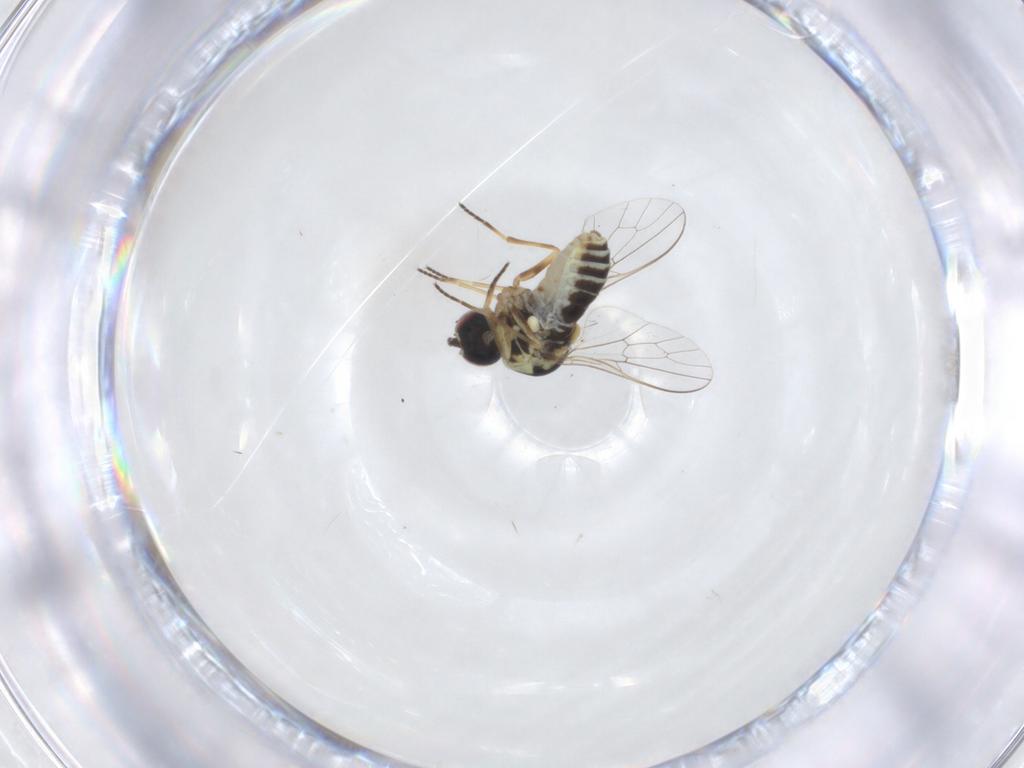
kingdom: Animalia
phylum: Arthropoda
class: Insecta
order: Diptera
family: Bombyliidae
